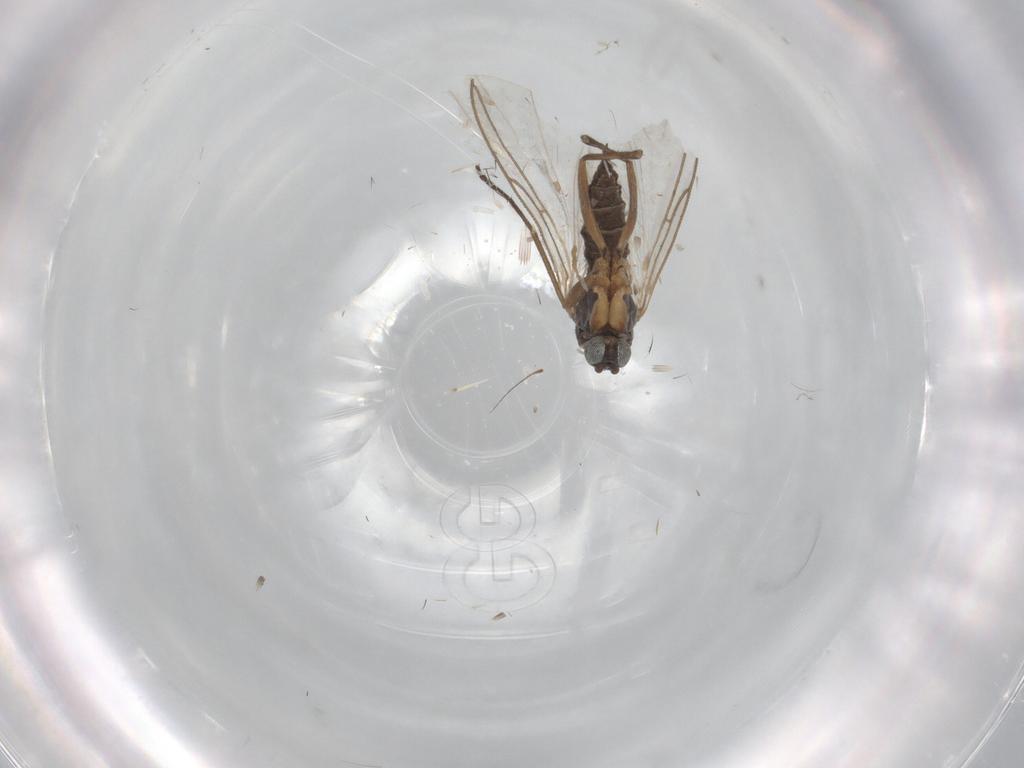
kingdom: Animalia
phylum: Arthropoda
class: Insecta
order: Diptera
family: Sciaridae
